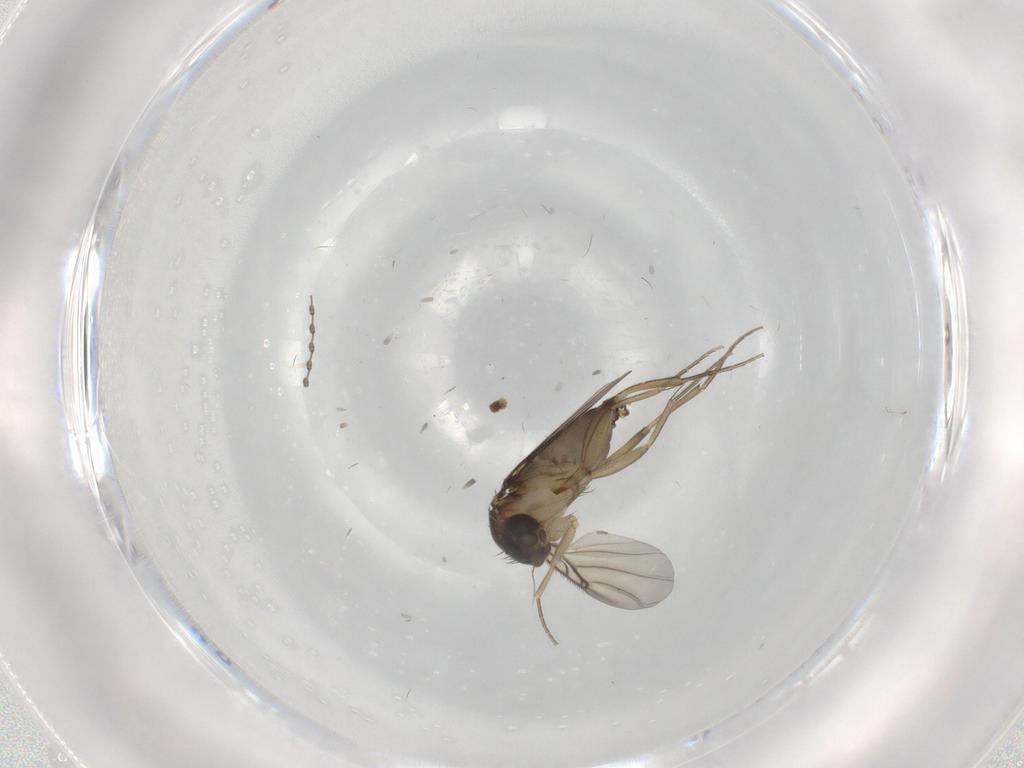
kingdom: Animalia
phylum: Arthropoda
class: Insecta
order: Diptera
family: Phoridae
